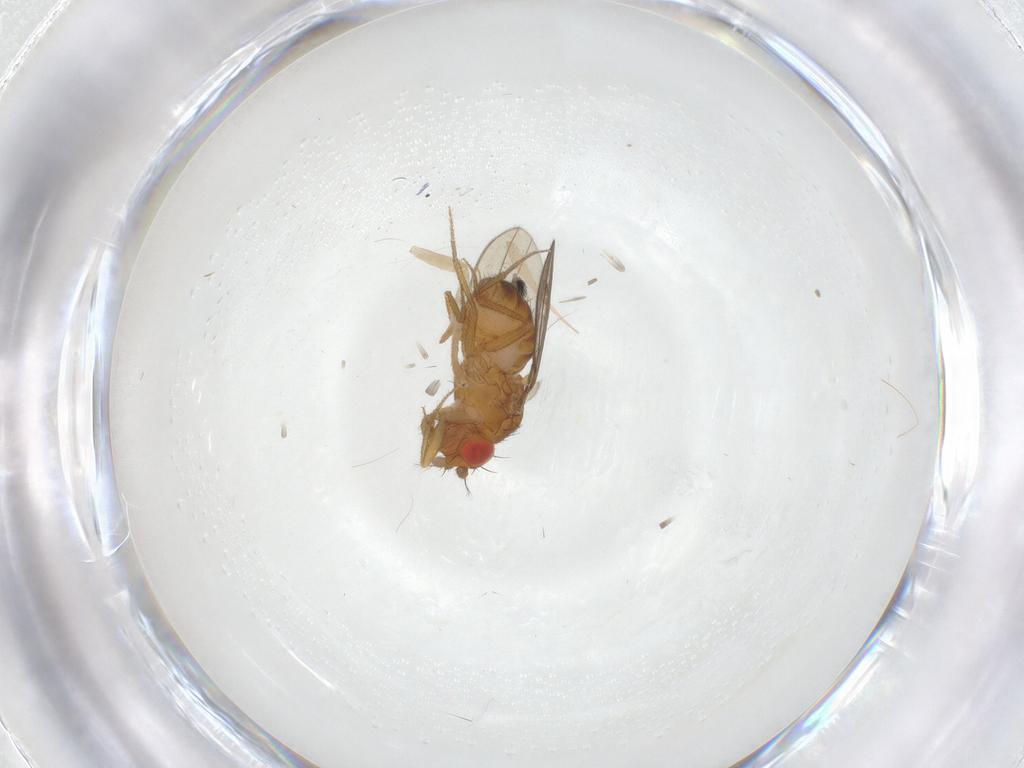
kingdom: Animalia
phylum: Arthropoda
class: Insecta
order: Diptera
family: Drosophilidae
